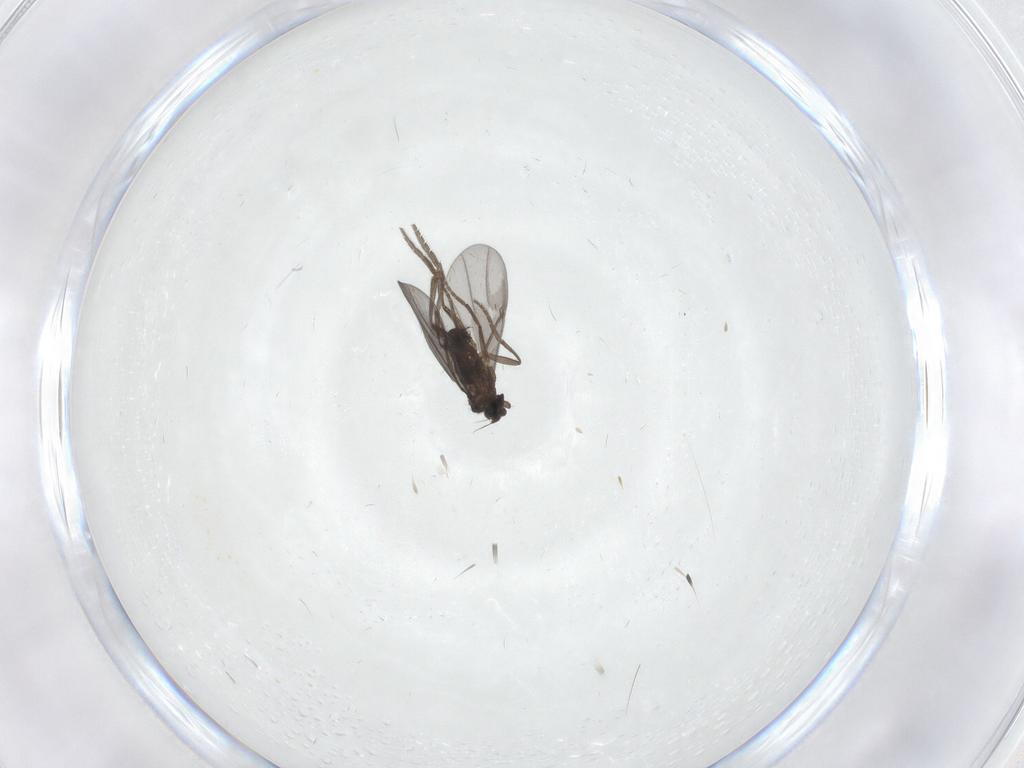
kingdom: Animalia
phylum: Arthropoda
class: Insecta
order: Diptera
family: Phoridae
